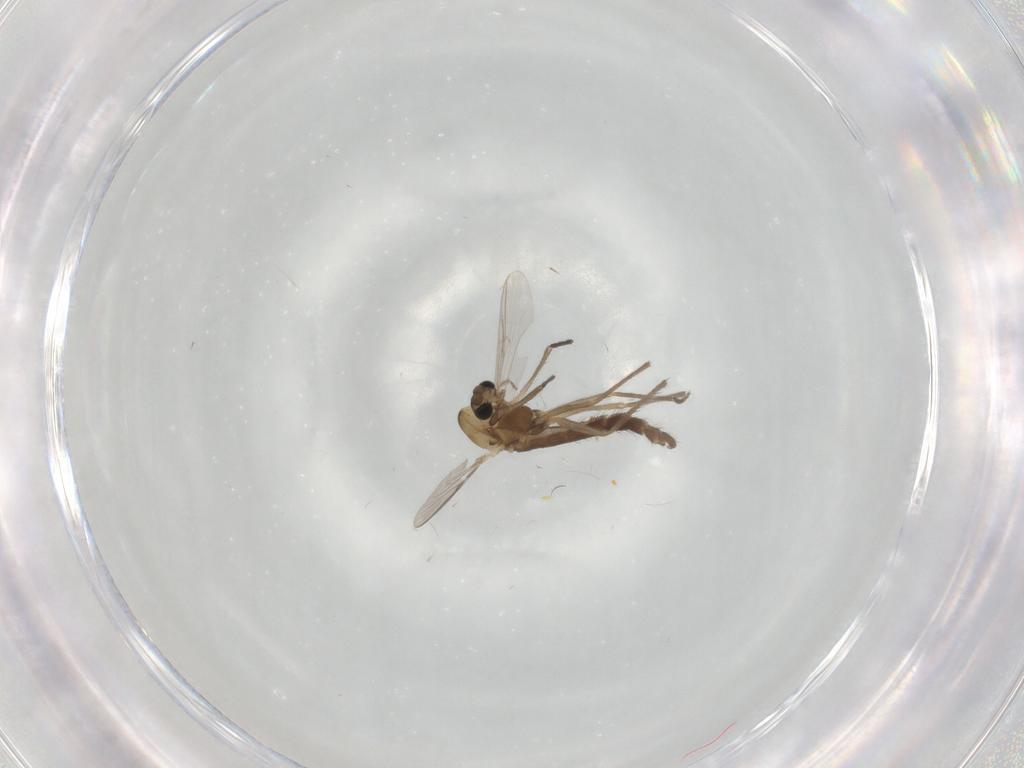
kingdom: Animalia
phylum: Arthropoda
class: Insecta
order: Diptera
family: Chironomidae
